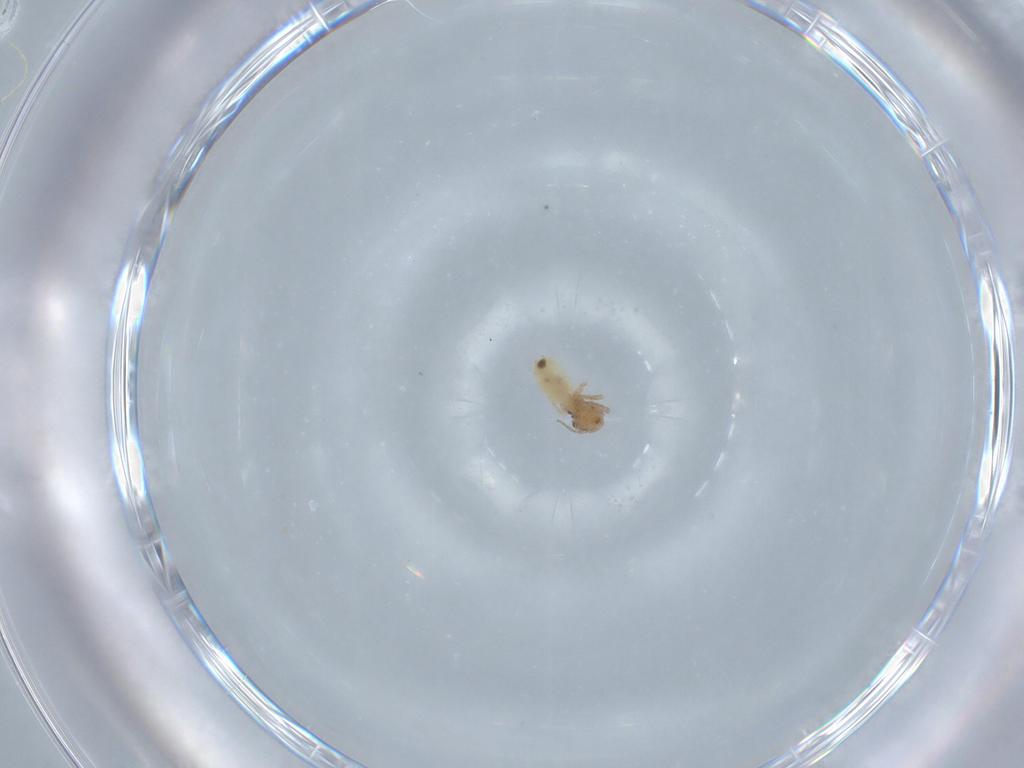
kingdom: Animalia
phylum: Arthropoda
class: Insecta
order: Psocodea
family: Lepidopsocidae
